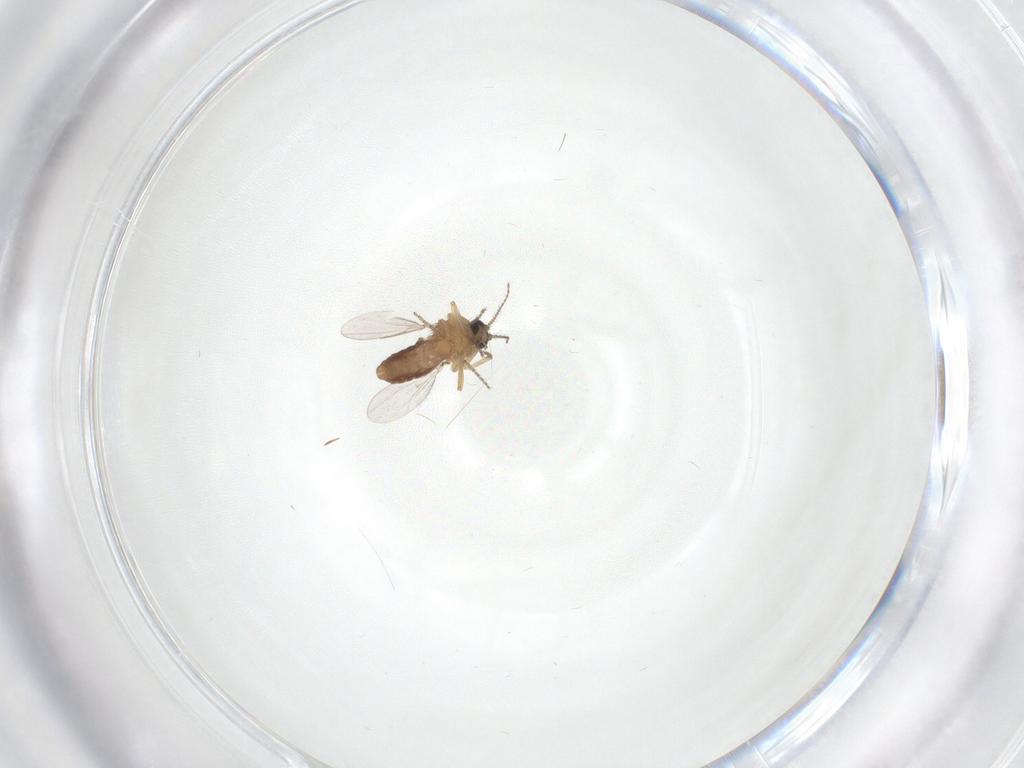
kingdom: Animalia
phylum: Arthropoda
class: Insecta
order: Diptera
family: Ceratopogonidae
